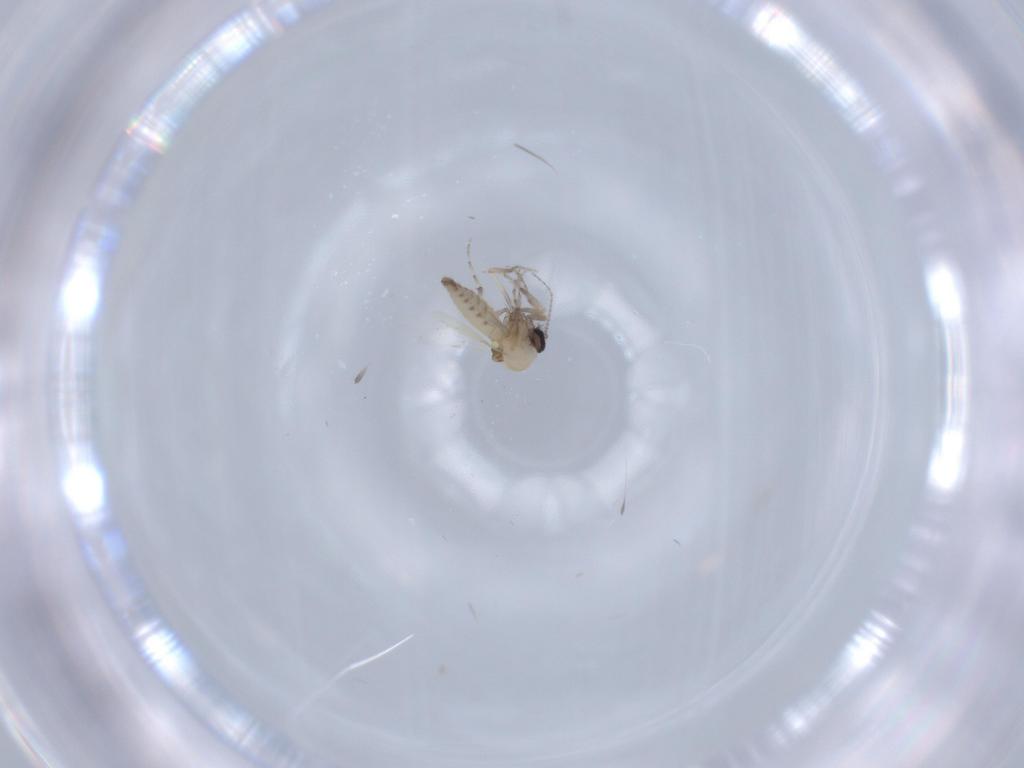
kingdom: Animalia
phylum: Arthropoda
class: Insecta
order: Diptera
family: Ceratopogonidae
